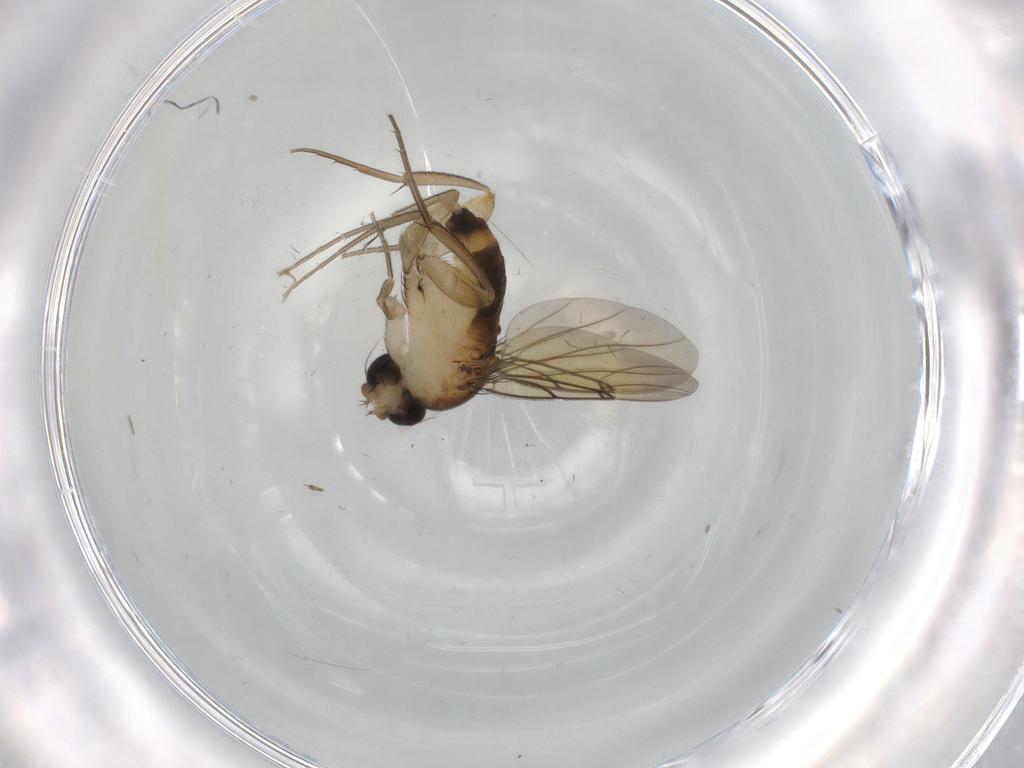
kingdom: Animalia
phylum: Arthropoda
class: Insecta
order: Diptera
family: Phoridae
